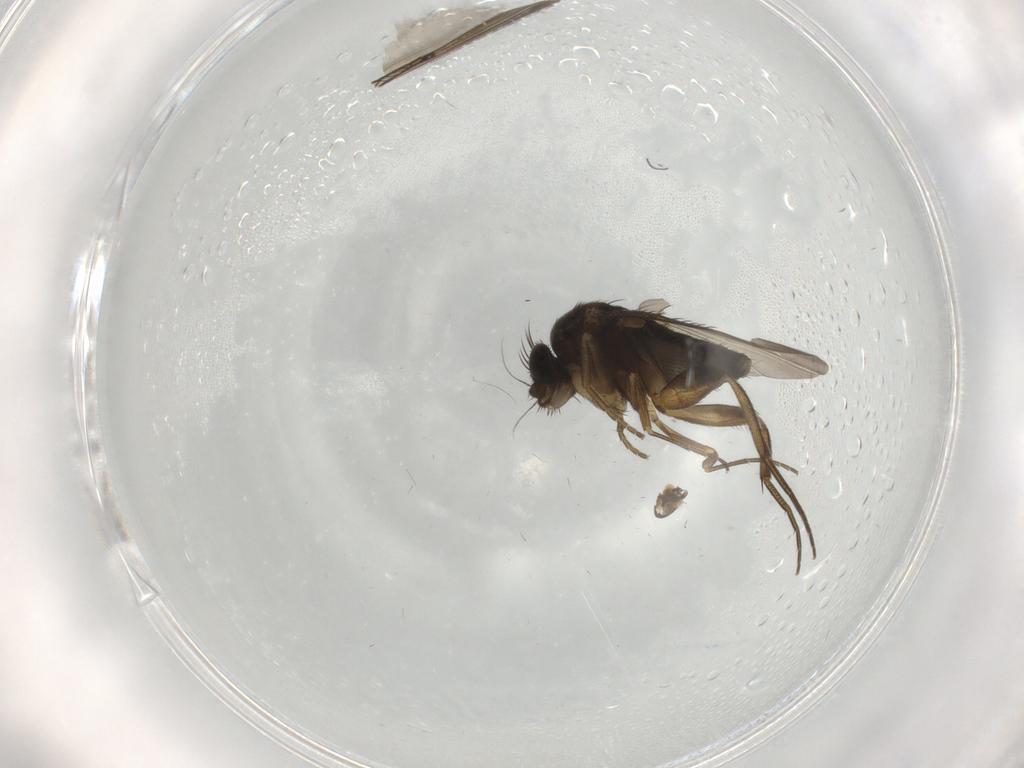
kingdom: Animalia
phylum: Arthropoda
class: Insecta
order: Diptera
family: Phoridae
